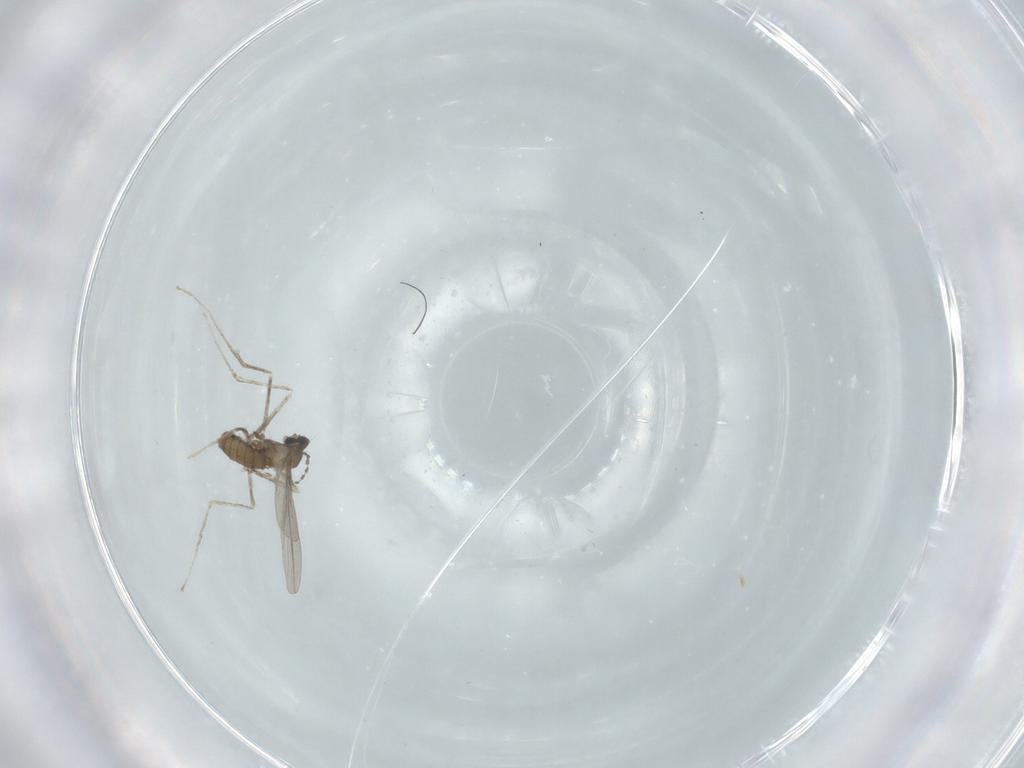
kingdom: Animalia
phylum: Arthropoda
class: Insecta
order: Diptera
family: Cecidomyiidae
